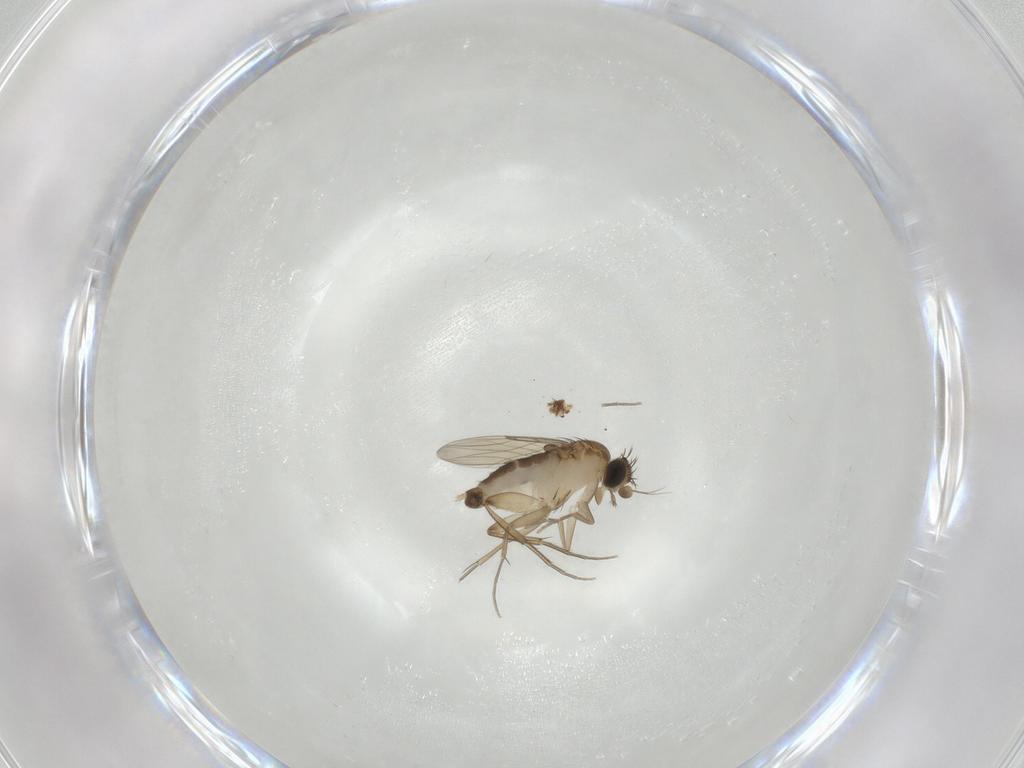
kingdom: Animalia
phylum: Arthropoda
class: Insecta
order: Diptera
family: Phoridae
